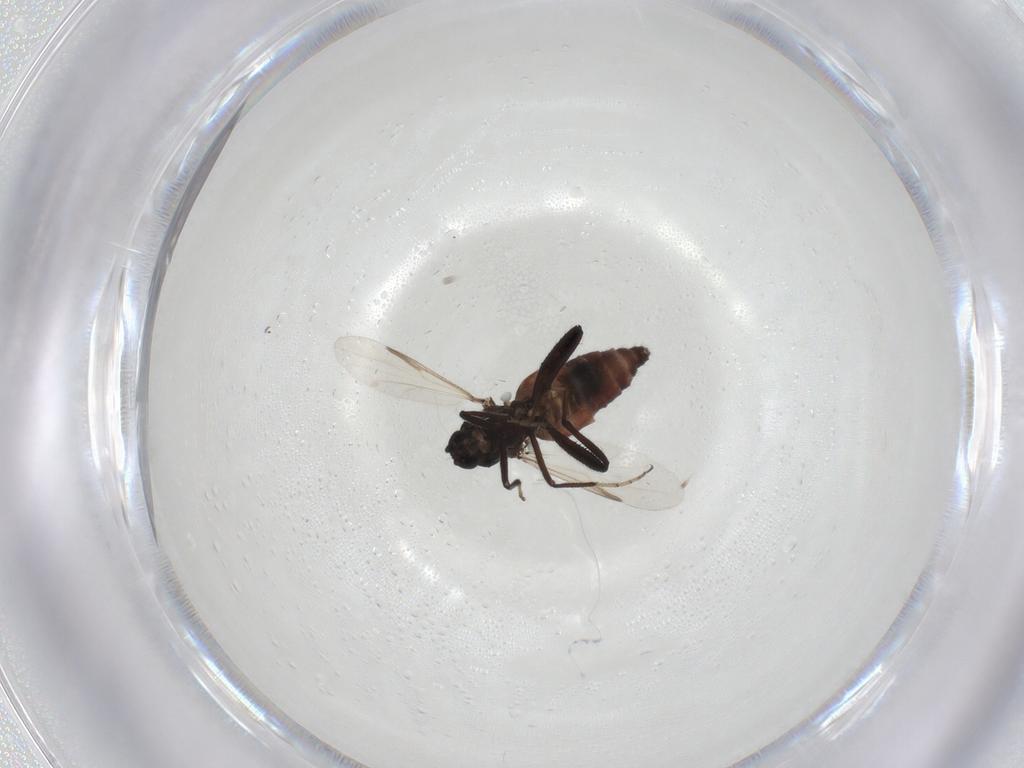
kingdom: Animalia
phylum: Arthropoda
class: Insecta
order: Diptera
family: Ceratopogonidae
